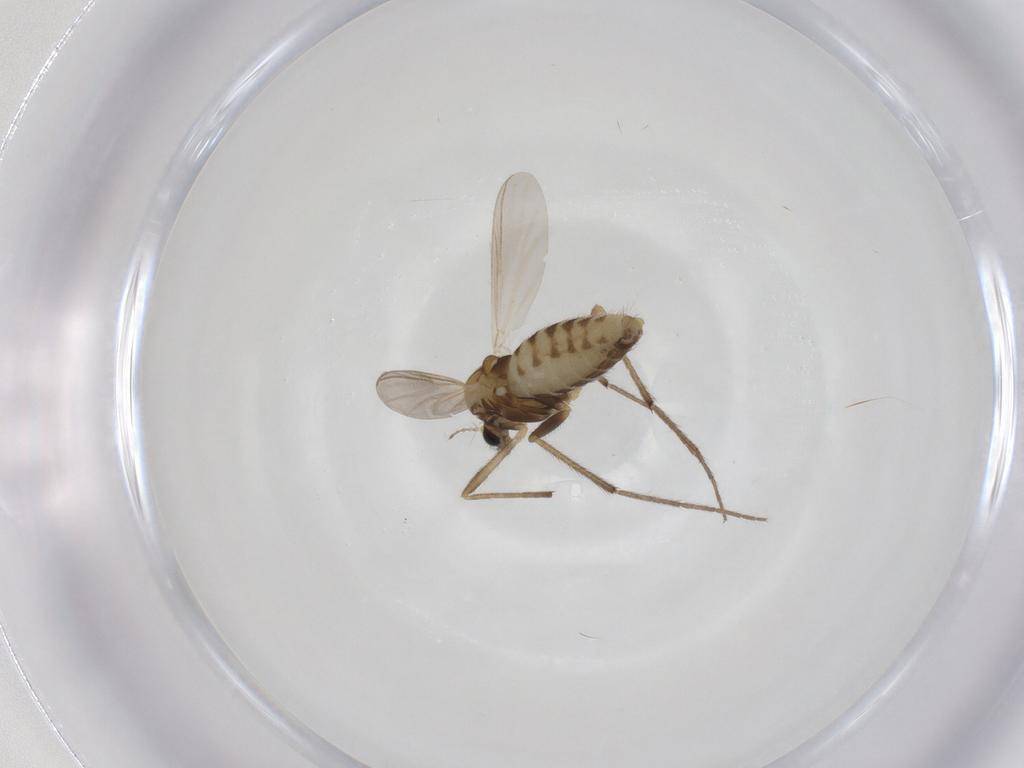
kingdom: Animalia
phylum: Arthropoda
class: Insecta
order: Diptera
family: Chironomidae
